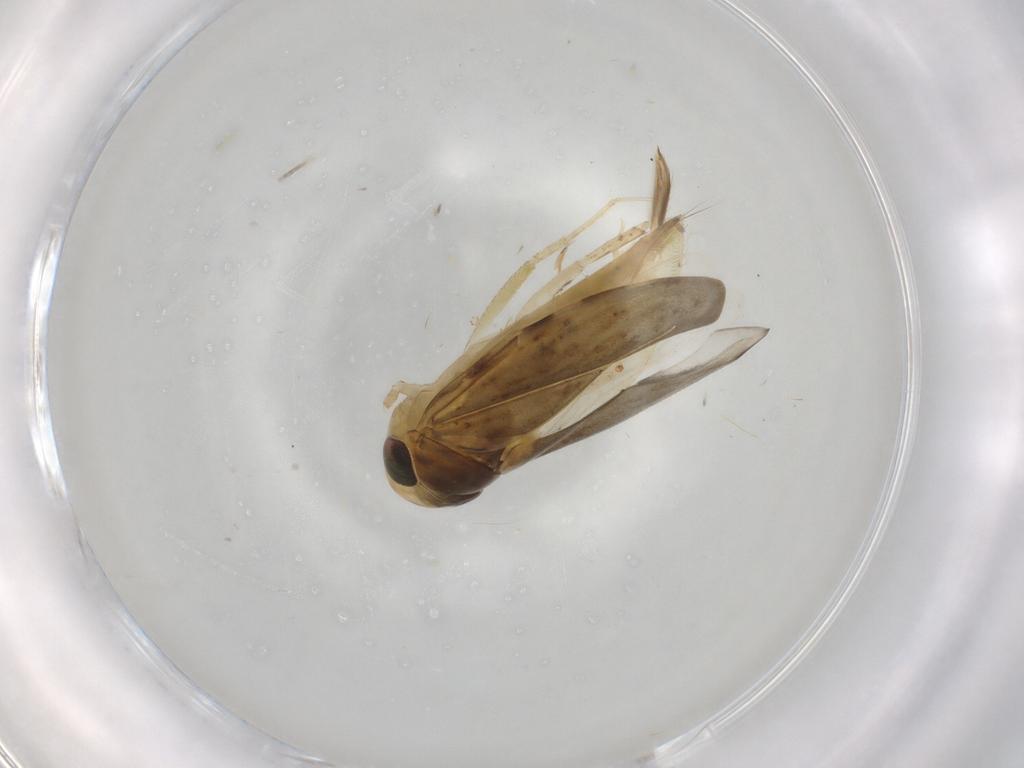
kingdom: Animalia
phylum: Arthropoda
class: Insecta
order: Hemiptera
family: Corixidae
